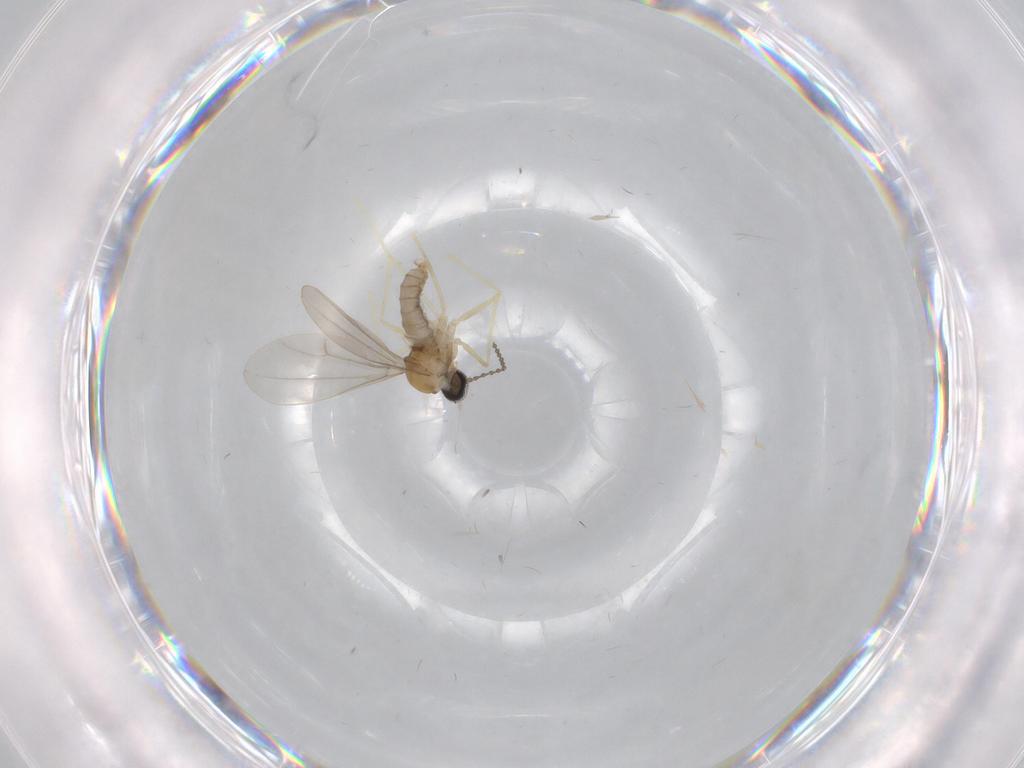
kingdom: Animalia
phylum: Arthropoda
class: Insecta
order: Diptera
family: Cecidomyiidae
